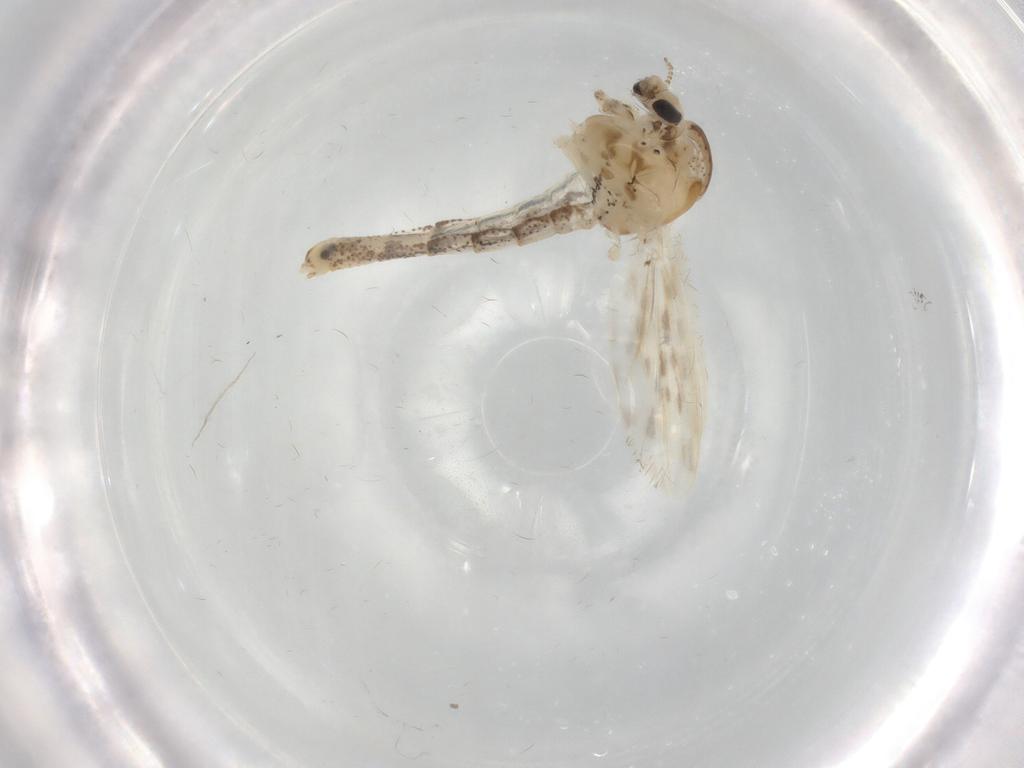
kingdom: Animalia
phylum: Arthropoda
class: Insecta
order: Diptera
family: Chaoboridae
